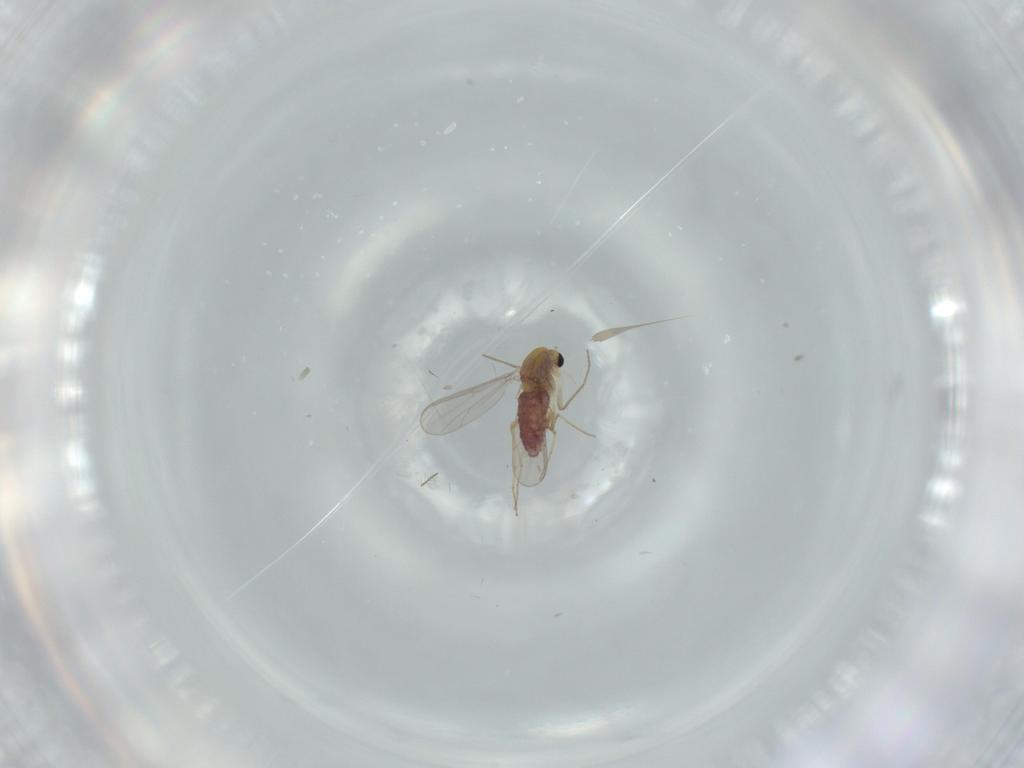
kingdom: Animalia
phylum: Arthropoda
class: Insecta
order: Diptera
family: Chironomidae
